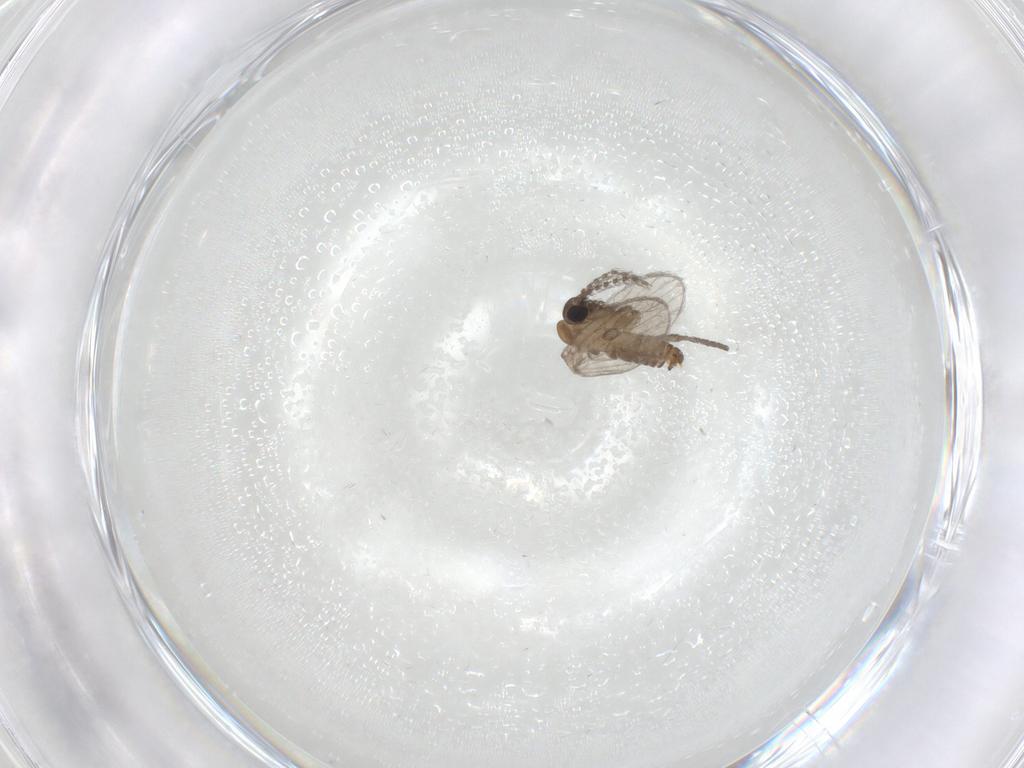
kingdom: Animalia
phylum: Arthropoda
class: Insecta
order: Diptera
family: Psychodidae
